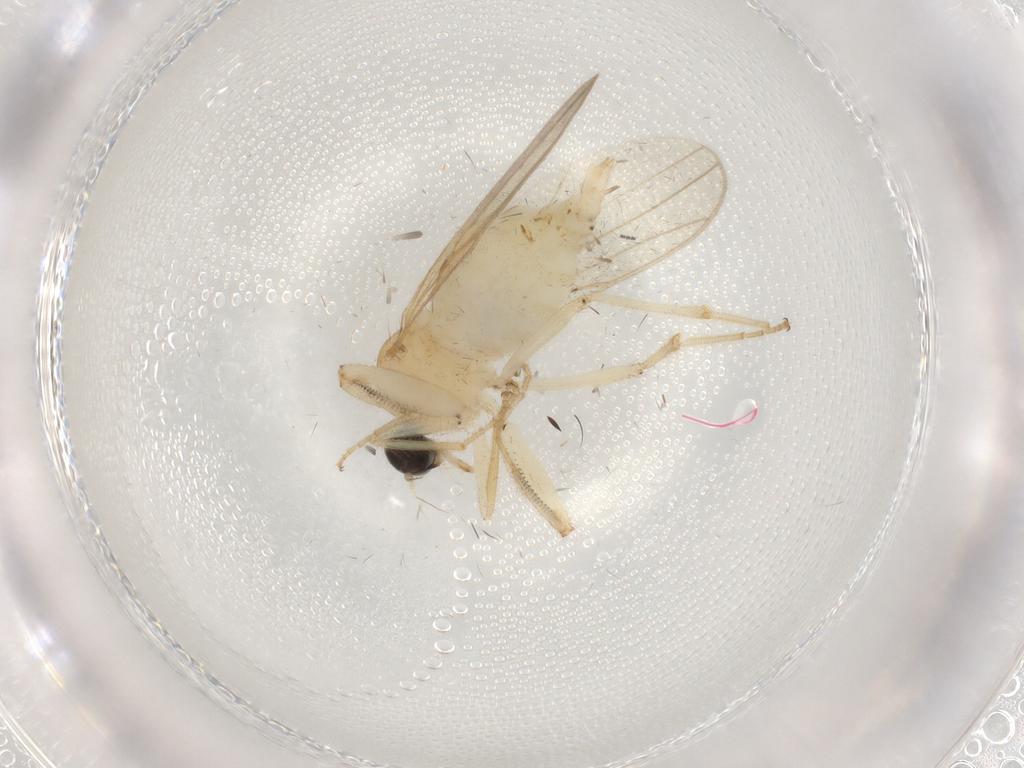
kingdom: Animalia
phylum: Arthropoda
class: Insecta
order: Diptera
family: Hybotidae
